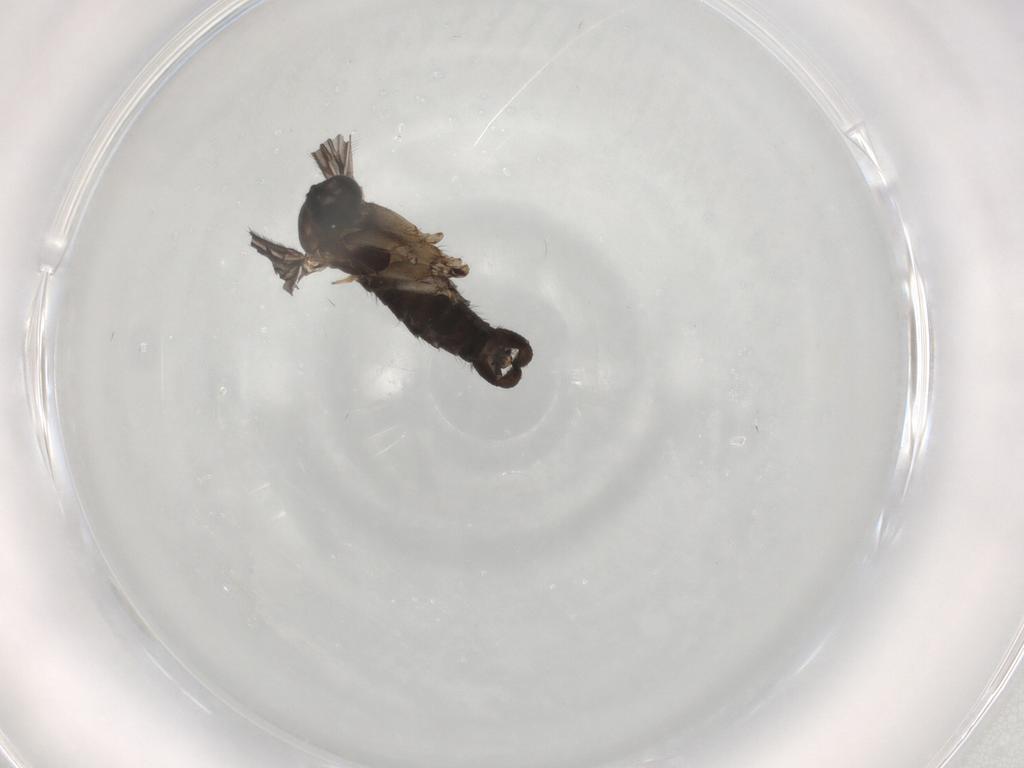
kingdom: Animalia
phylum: Arthropoda
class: Insecta
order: Diptera
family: Sciaridae
